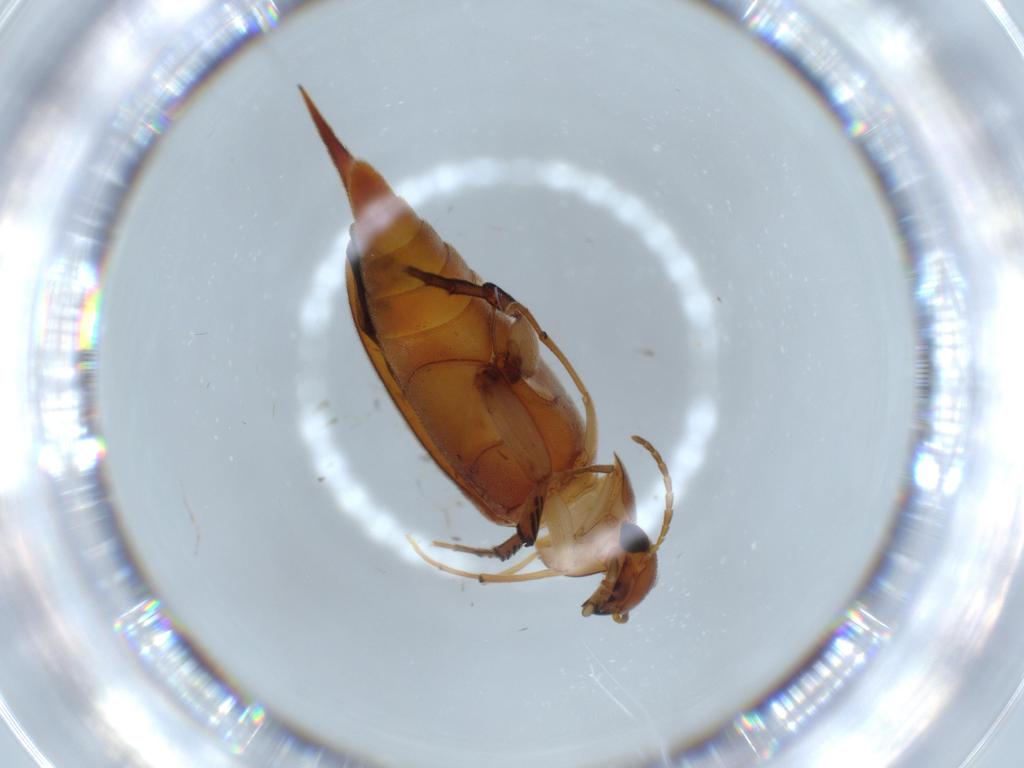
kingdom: Animalia
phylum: Arthropoda
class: Insecta
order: Coleoptera
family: Mordellidae
